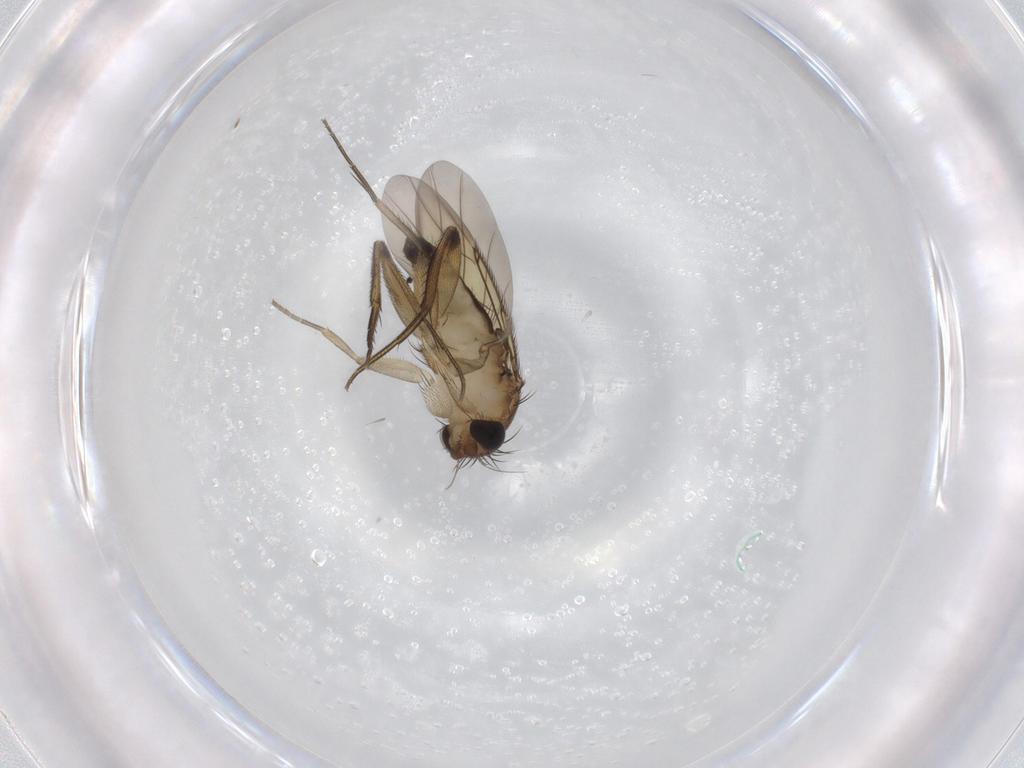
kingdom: Animalia
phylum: Arthropoda
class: Insecta
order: Diptera
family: Phoridae
